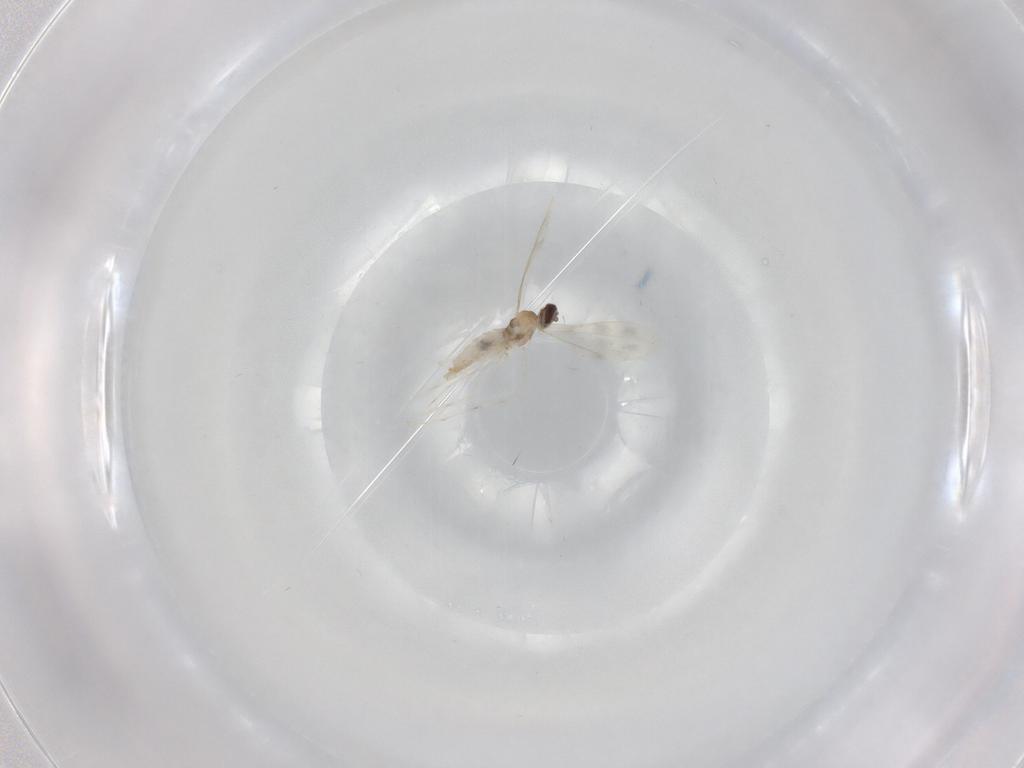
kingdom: Animalia
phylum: Arthropoda
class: Insecta
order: Diptera
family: Cecidomyiidae
